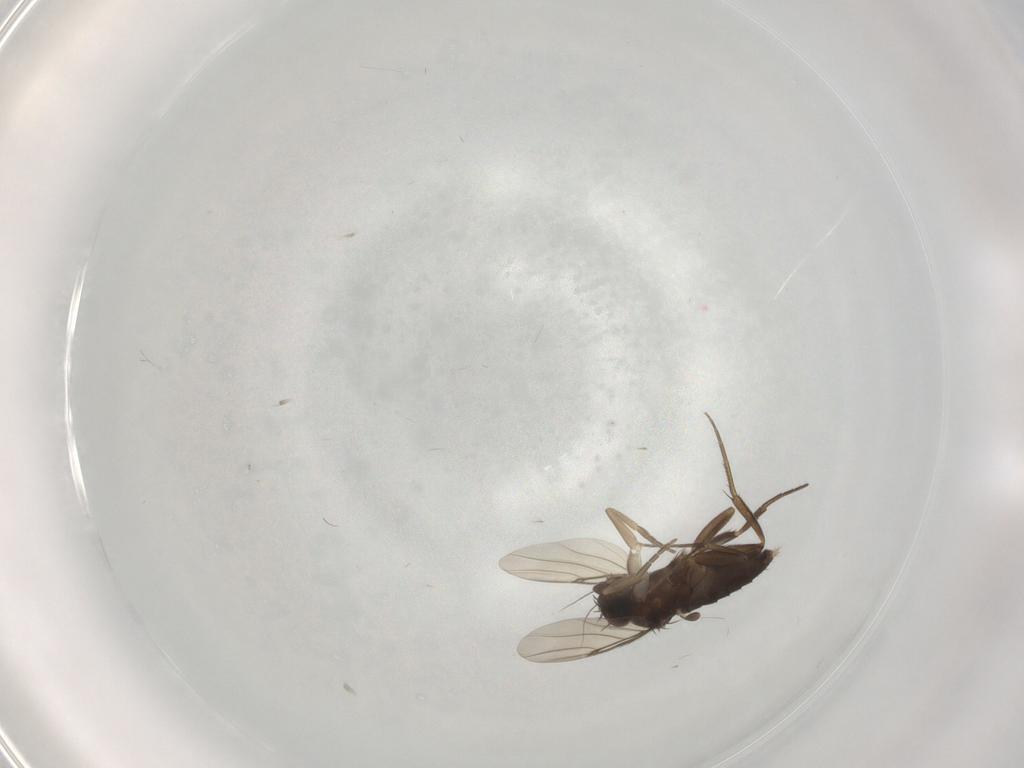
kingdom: Animalia
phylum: Arthropoda
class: Insecta
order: Diptera
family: Phoridae
